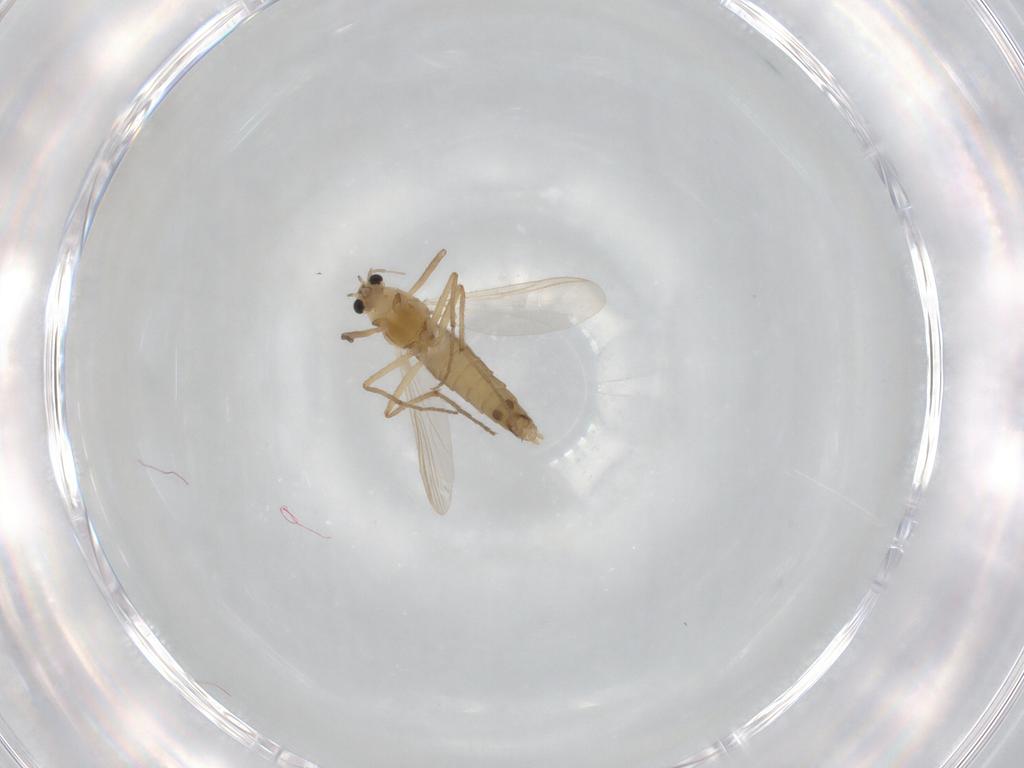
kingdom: Animalia
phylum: Arthropoda
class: Insecta
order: Diptera
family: Chironomidae
